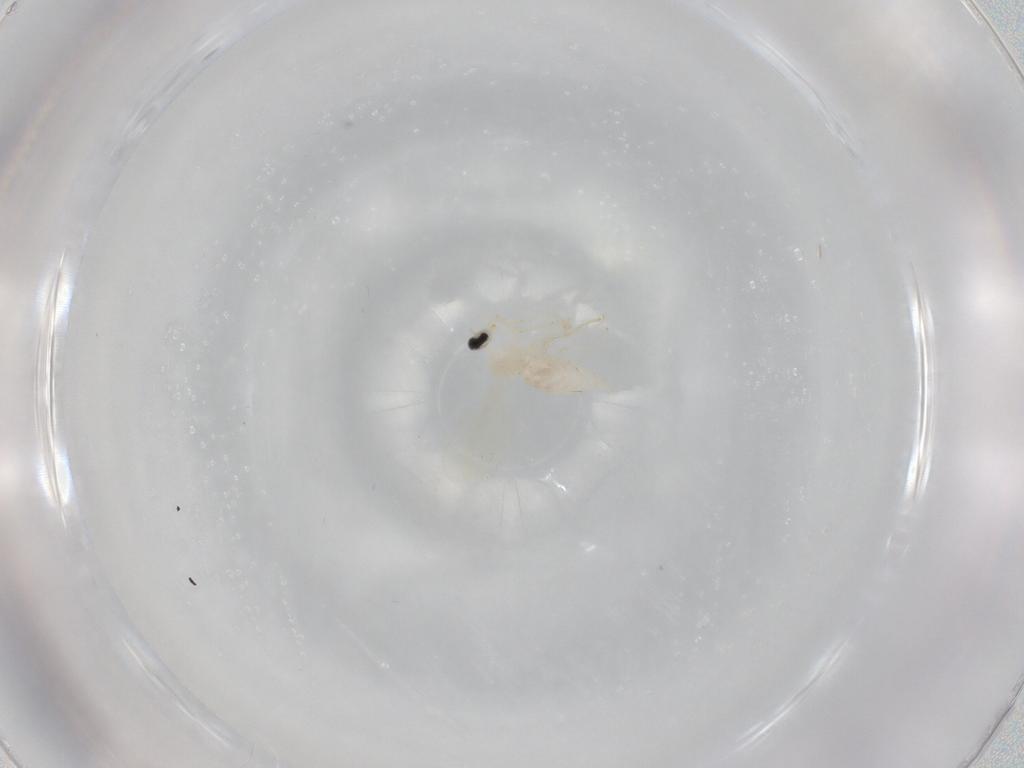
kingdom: Animalia
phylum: Arthropoda
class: Insecta
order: Diptera
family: Cecidomyiidae
